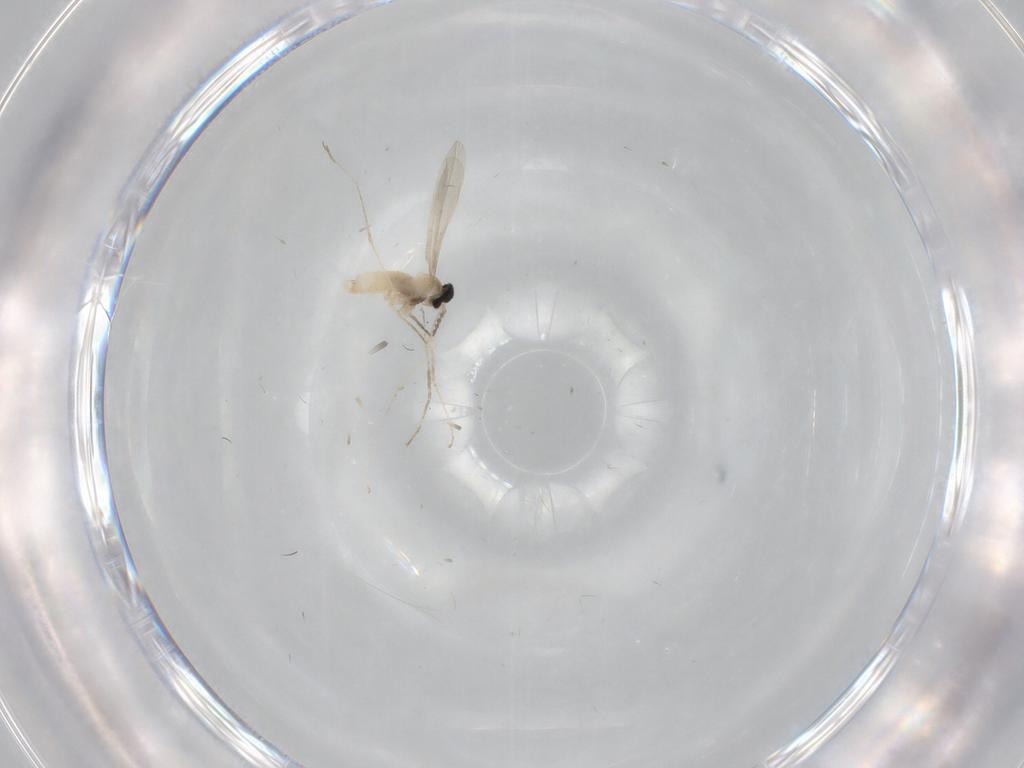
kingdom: Animalia
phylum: Arthropoda
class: Insecta
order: Diptera
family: Cecidomyiidae
